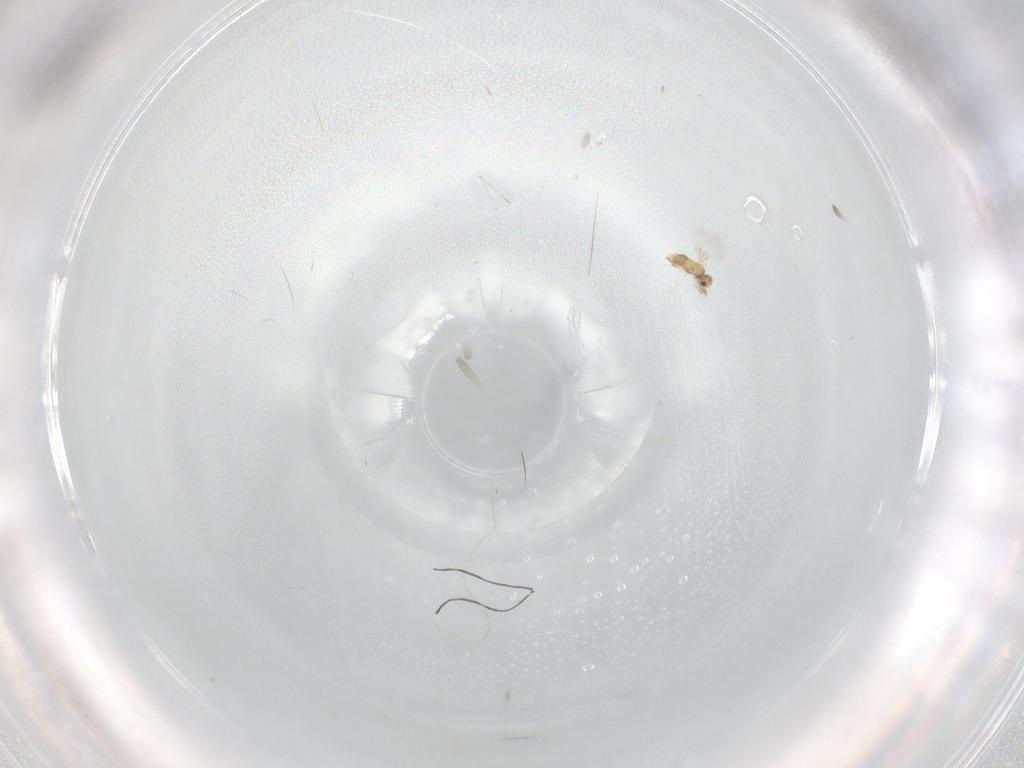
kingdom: Animalia
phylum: Arthropoda
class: Insecta
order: Hymenoptera
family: Aphelinidae
